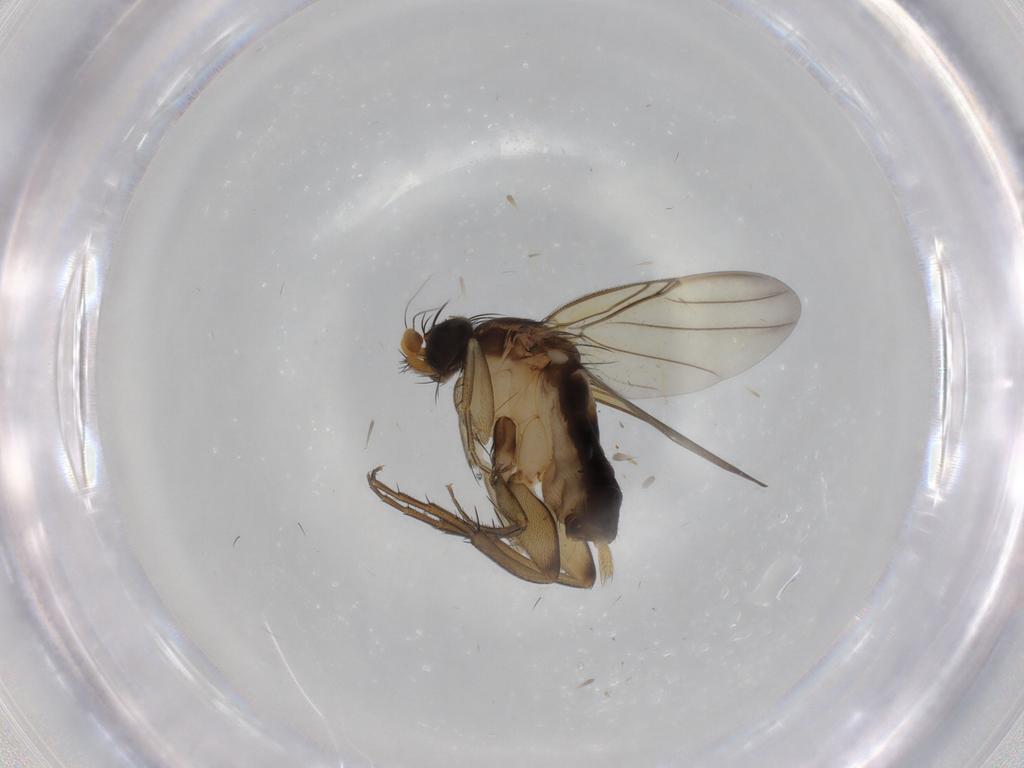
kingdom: Animalia
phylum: Arthropoda
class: Insecta
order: Diptera
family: Phoridae
